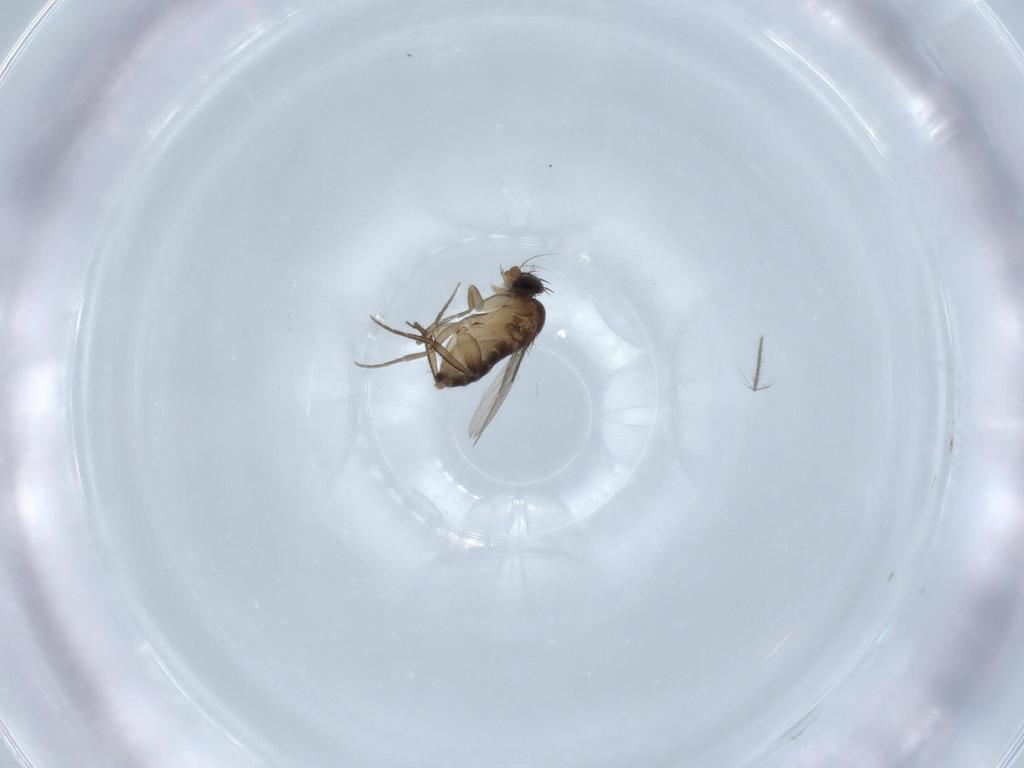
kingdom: Animalia
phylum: Arthropoda
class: Insecta
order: Diptera
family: Phoridae
